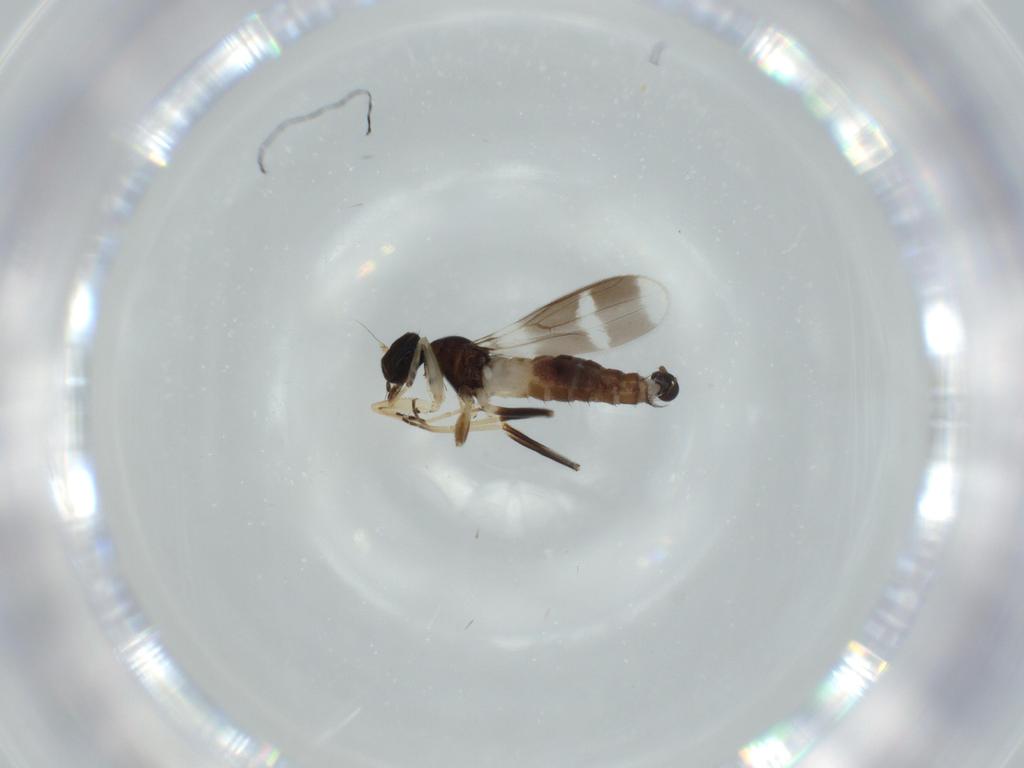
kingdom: Animalia
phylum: Arthropoda
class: Insecta
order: Diptera
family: Hybotidae
